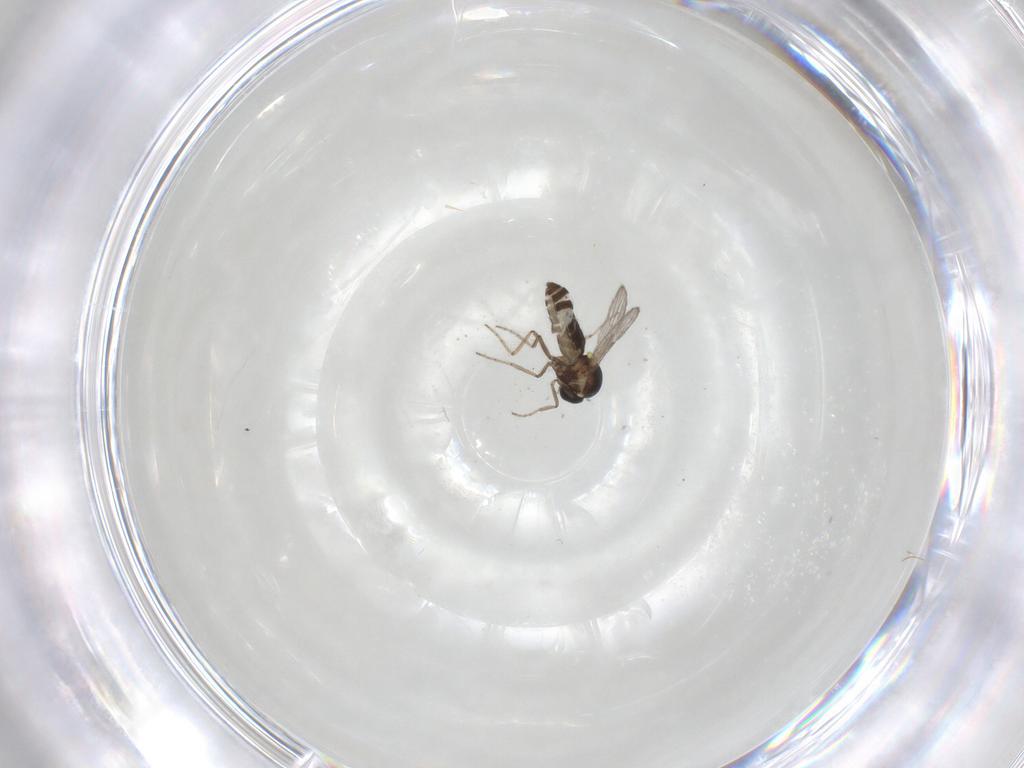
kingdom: Animalia
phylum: Arthropoda
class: Insecta
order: Diptera
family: Ceratopogonidae
